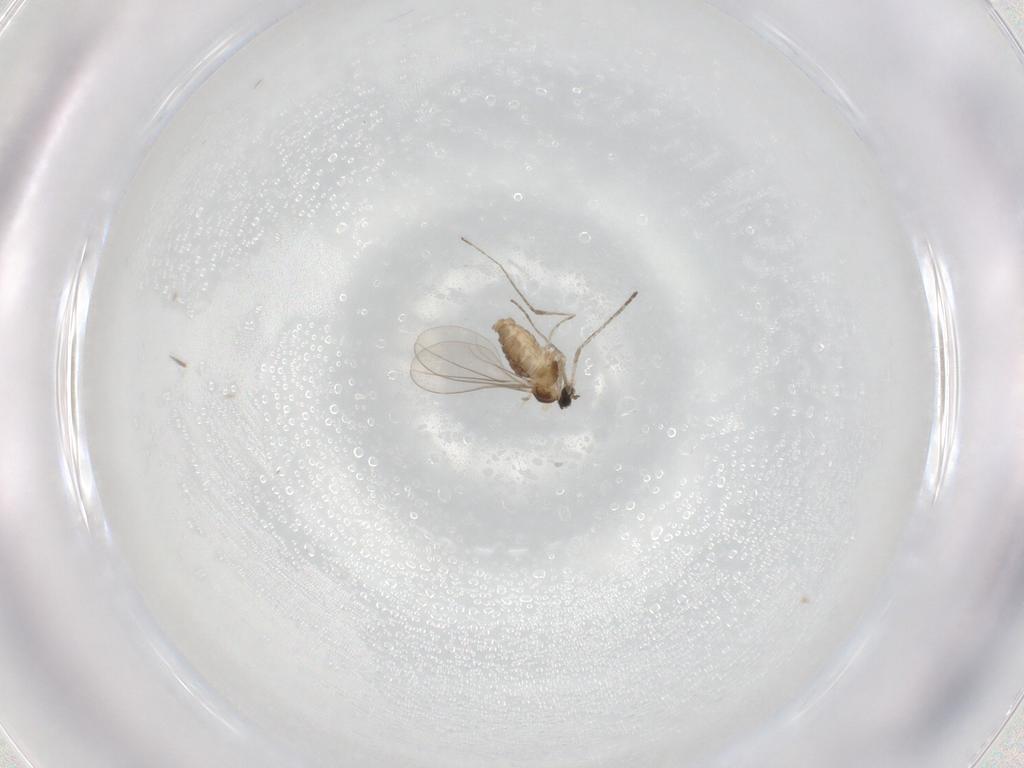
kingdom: Animalia
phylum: Arthropoda
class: Insecta
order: Diptera
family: Cecidomyiidae
